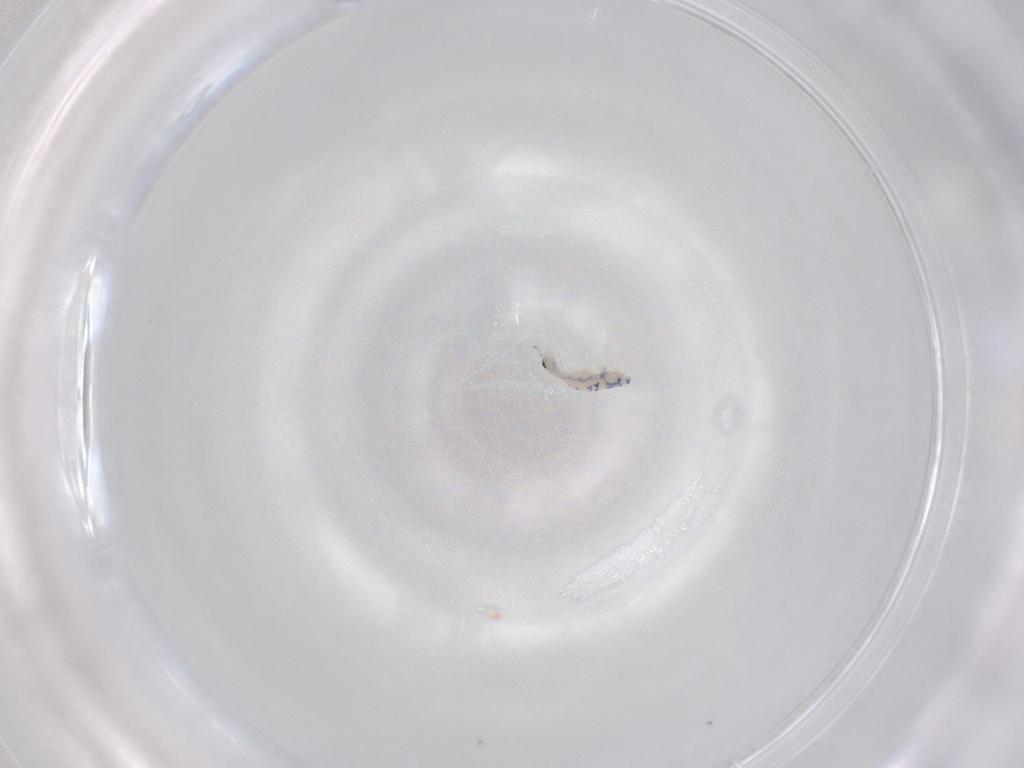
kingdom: Animalia
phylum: Arthropoda
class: Collembola
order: Entomobryomorpha
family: Entomobryidae
